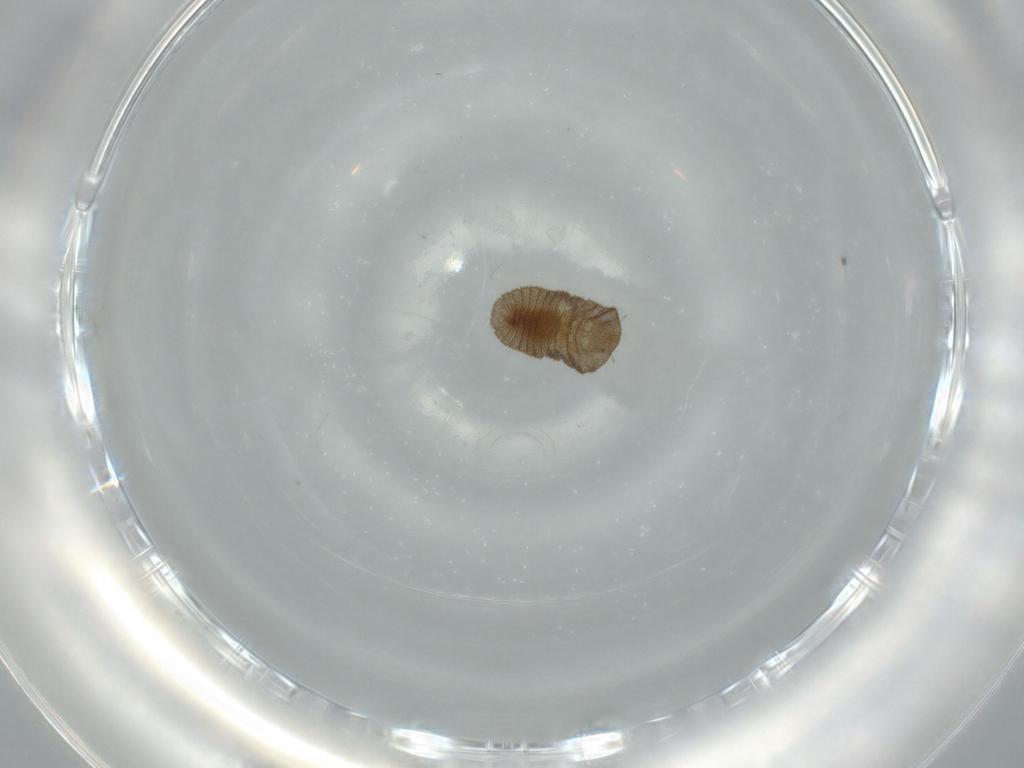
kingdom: Animalia
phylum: Arthropoda
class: Insecta
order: Coleoptera
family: Corylophidae
